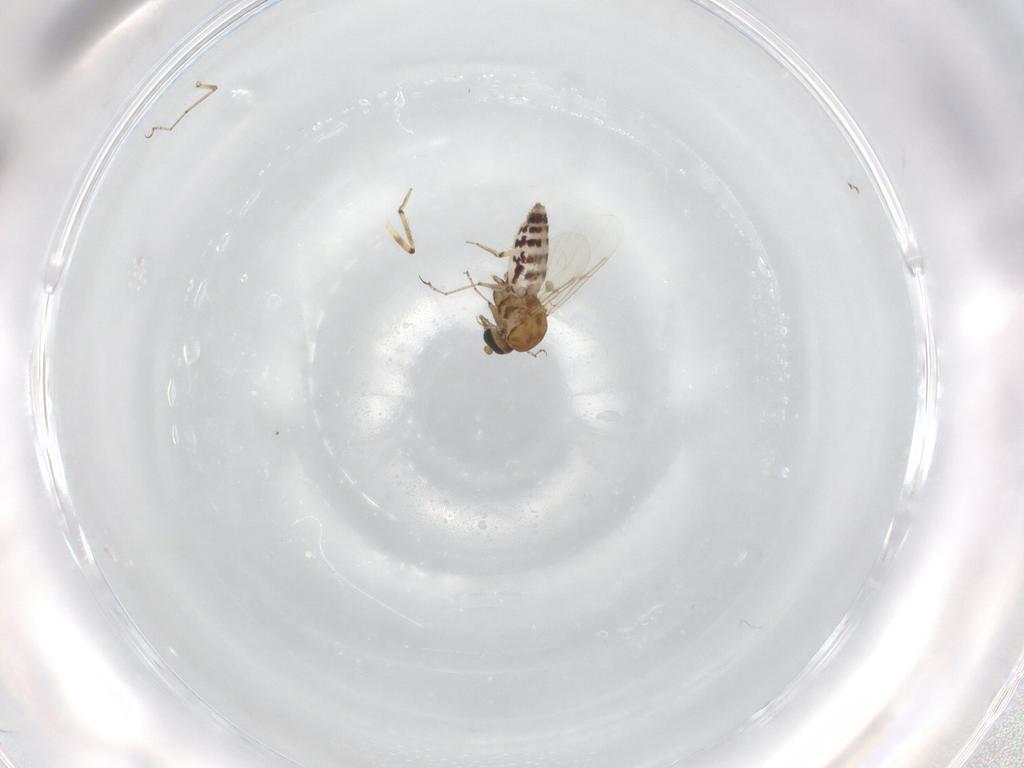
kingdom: Animalia
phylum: Arthropoda
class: Insecta
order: Diptera
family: Ceratopogonidae
